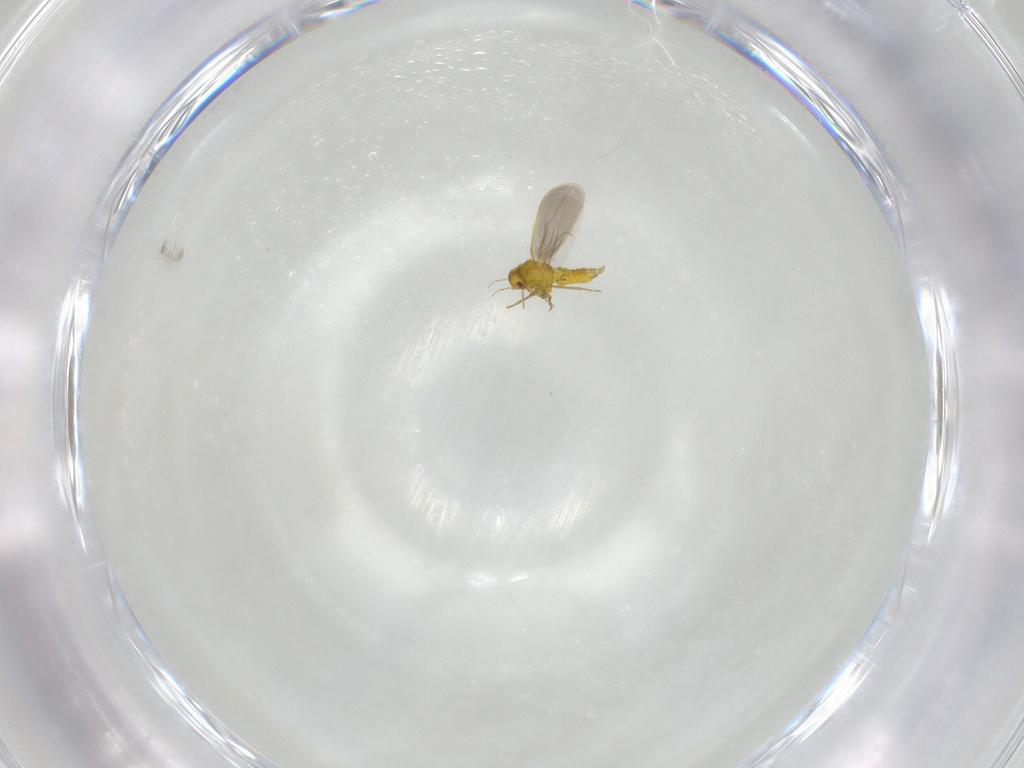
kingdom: Animalia
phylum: Arthropoda
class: Insecta
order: Hemiptera
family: Aleyrodidae
